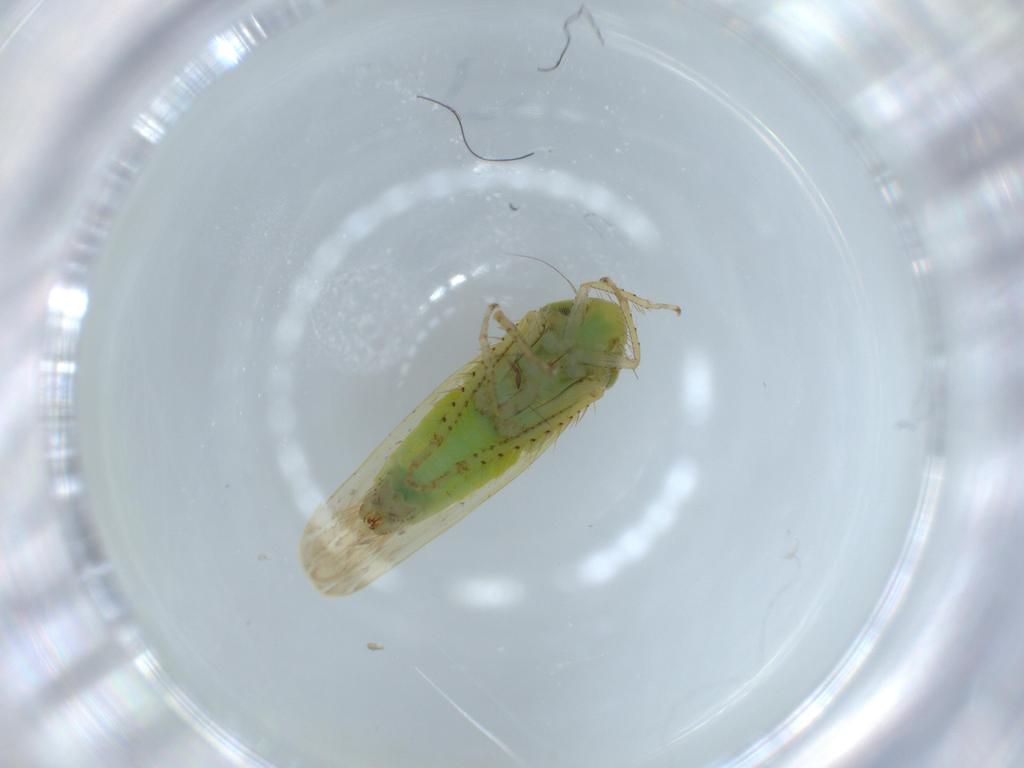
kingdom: Animalia
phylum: Arthropoda
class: Insecta
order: Hemiptera
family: Cicadellidae
